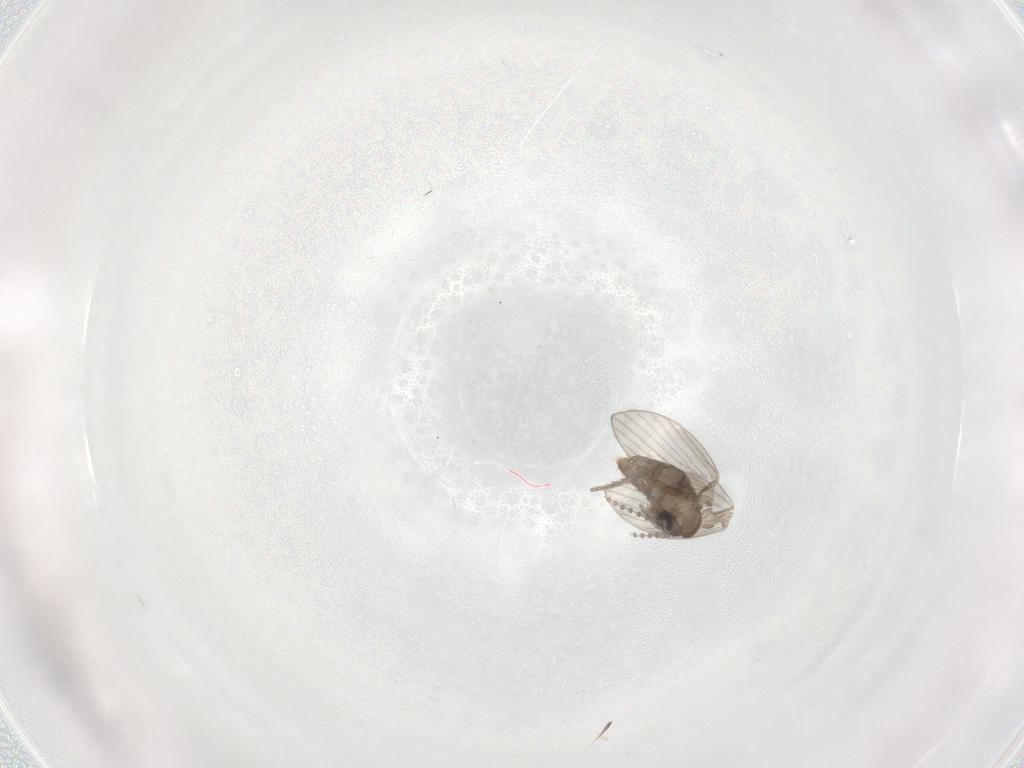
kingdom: Animalia
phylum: Arthropoda
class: Insecta
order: Diptera
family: Psychodidae
